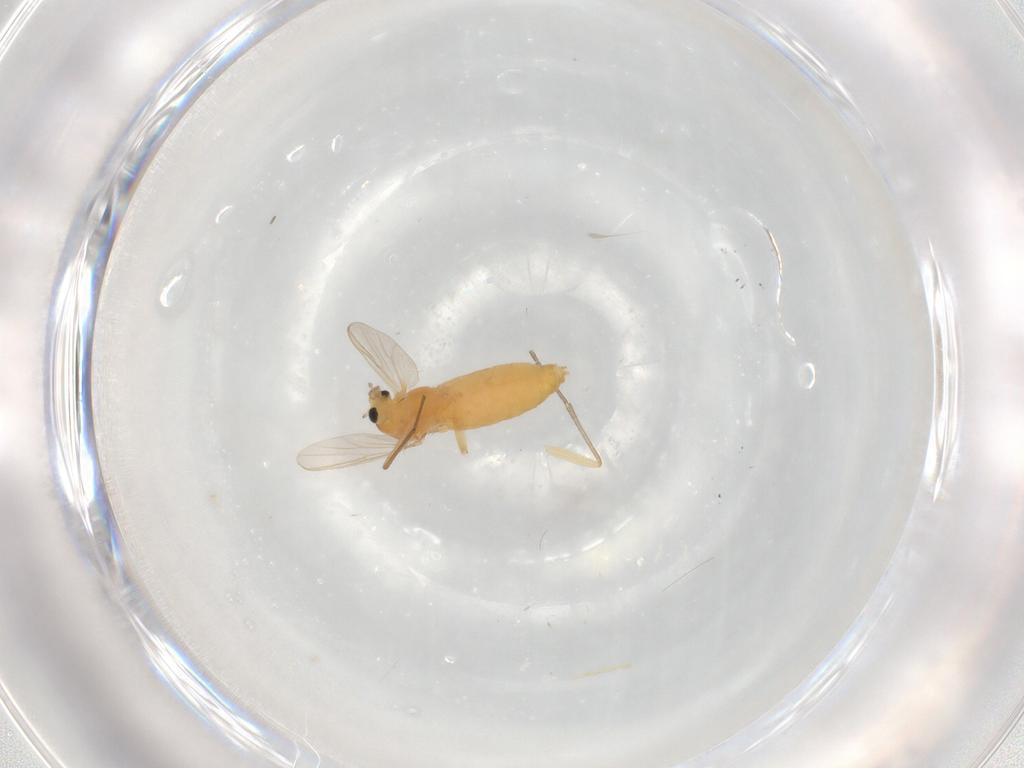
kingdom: Animalia
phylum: Arthropoda
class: Insecta
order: Diptera
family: Chironomidae
